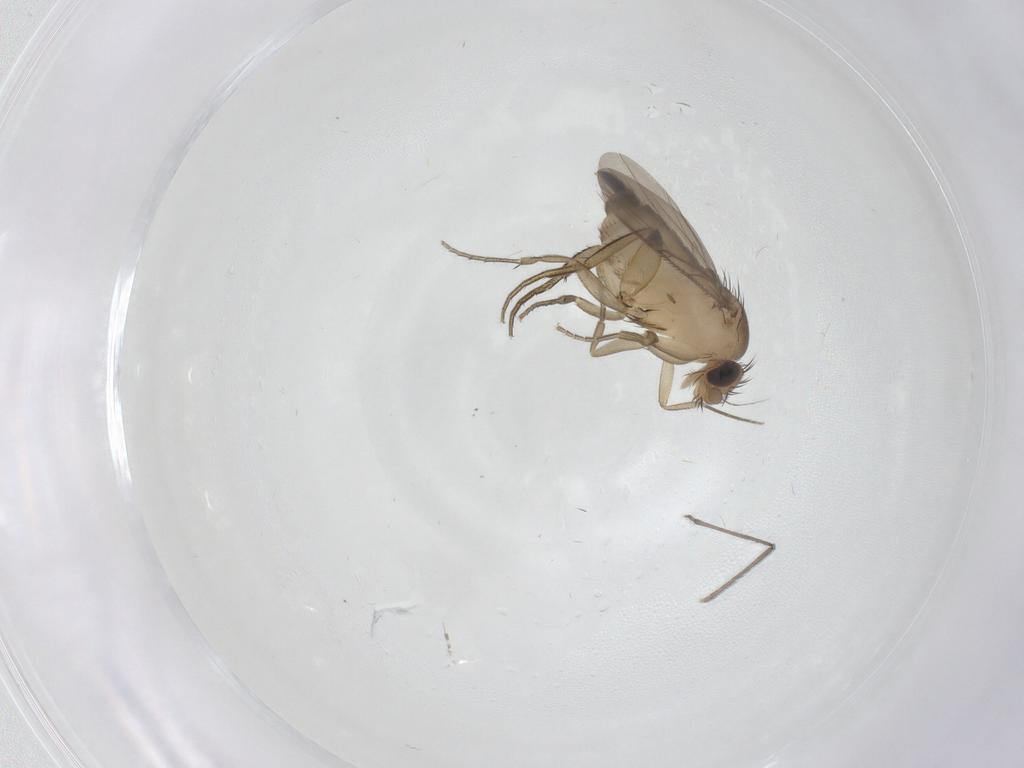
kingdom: Animalia
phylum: Arthropoda
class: Insecta
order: Diptera
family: Phoridae
